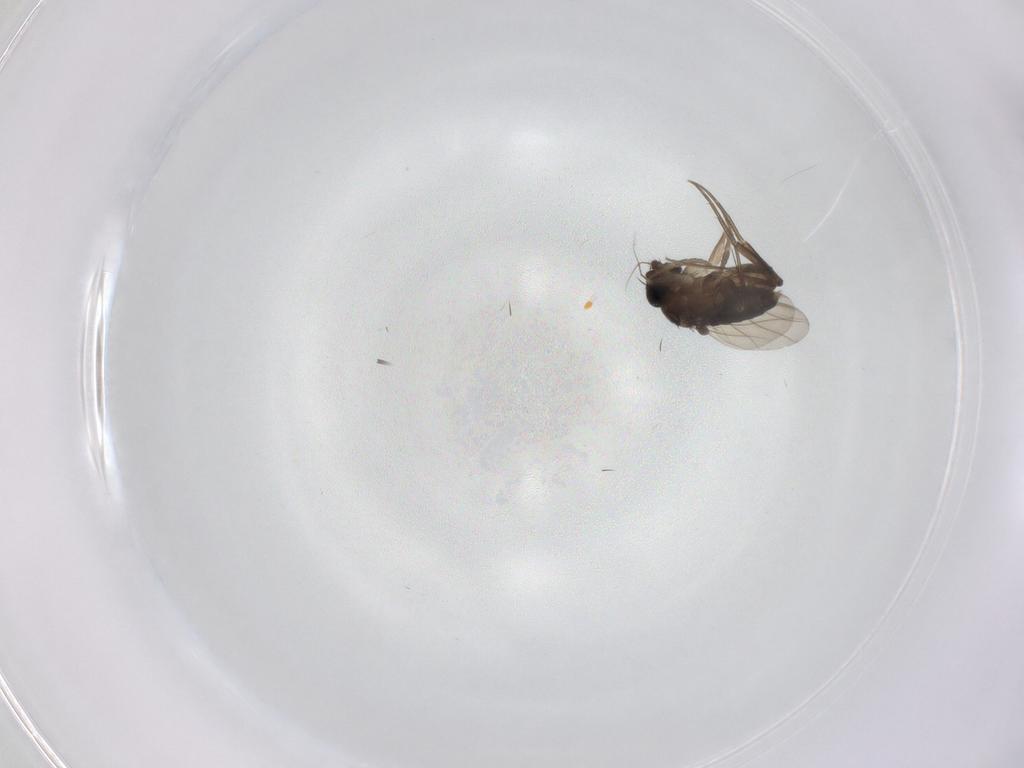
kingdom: Animalia
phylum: Arthropoda
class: Insecta
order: Diptera
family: Phoridae
